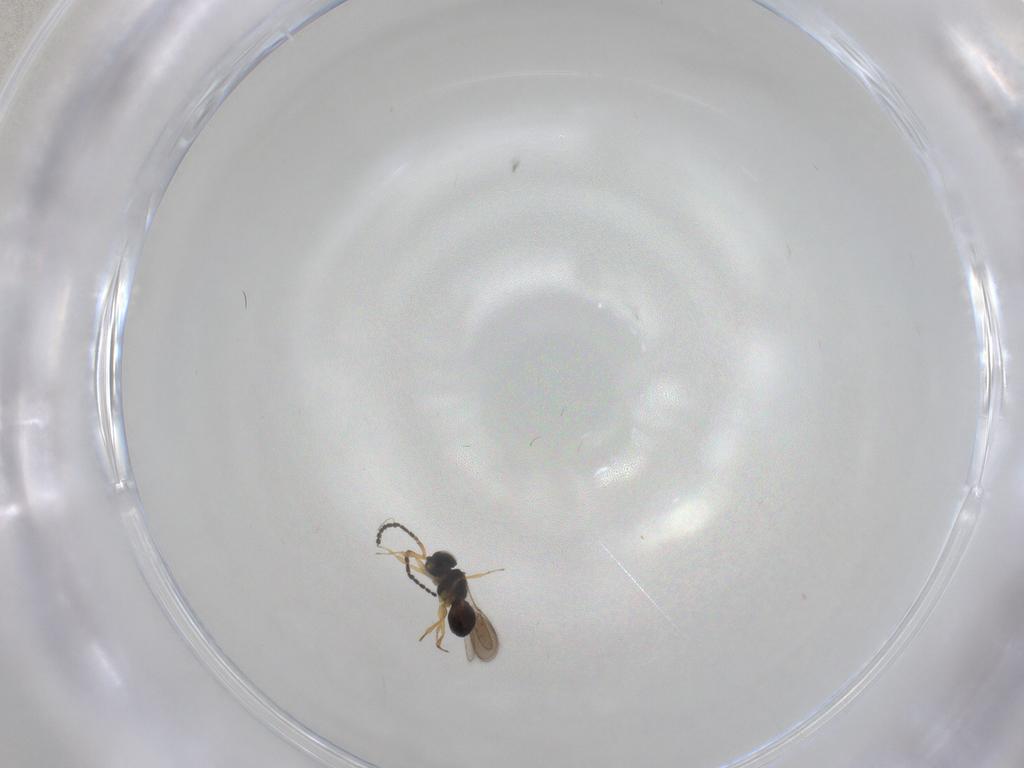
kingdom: Animalia
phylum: Arthropoda
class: Insecta
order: Hymenoptera
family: Scelionidae
